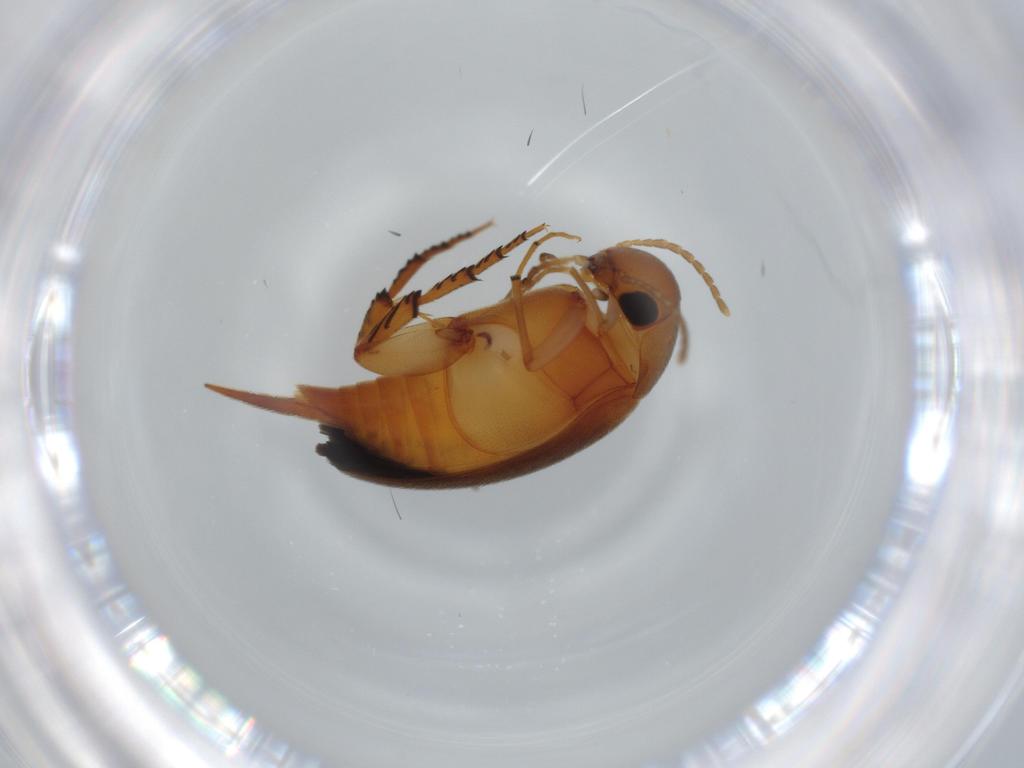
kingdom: Animalia
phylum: Arthropoda
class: Insecta
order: Coleoptera
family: Mordellidae
